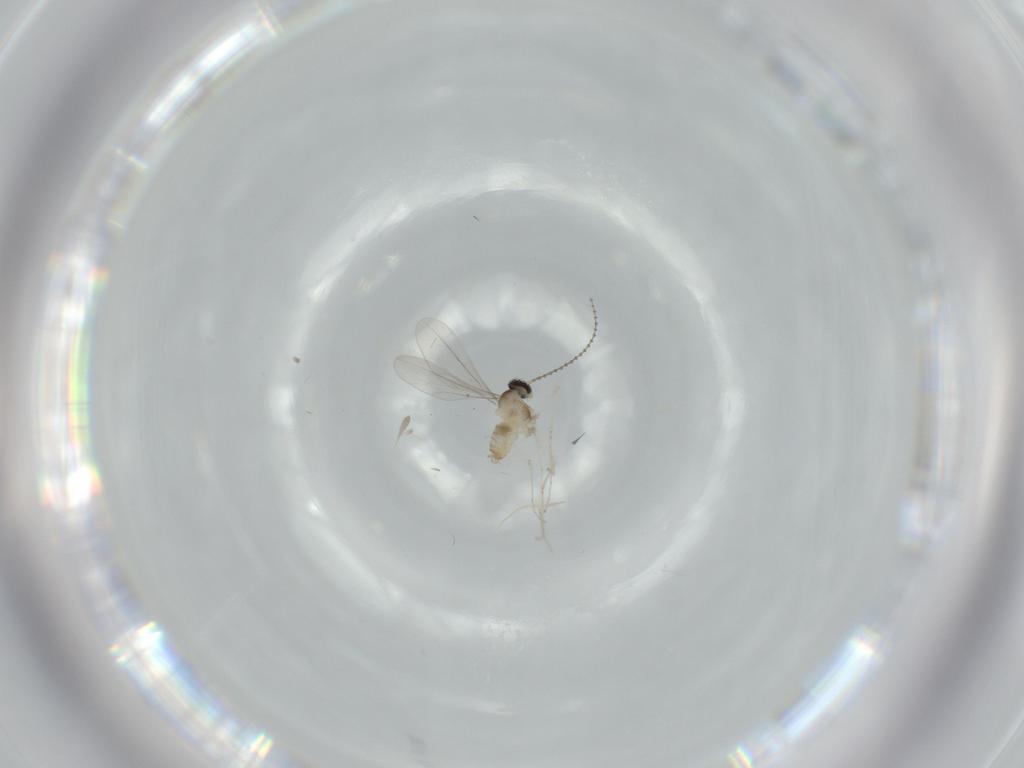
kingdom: Animalia
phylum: Arthropoda
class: Insecta
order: Diptera
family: Cecidomyiidae
